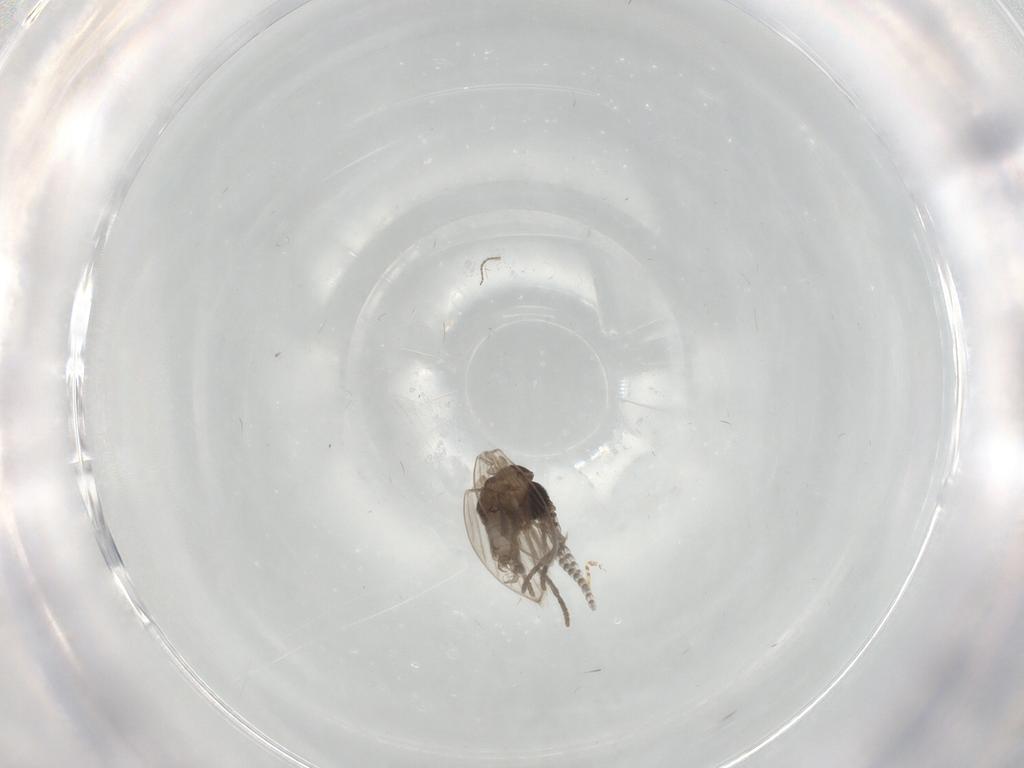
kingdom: Animalia
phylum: Arthropoda
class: Insecta
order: Diptera
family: Psychodidae
